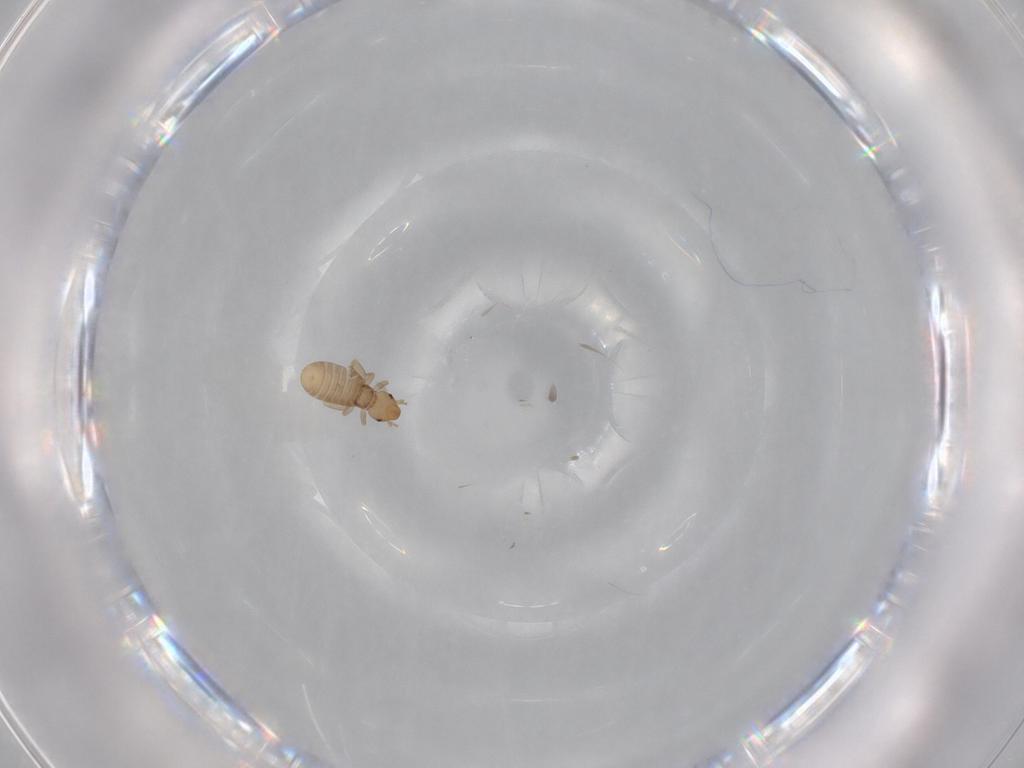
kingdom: Animalia
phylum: Arthropoda
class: Insecta
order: Psocodea
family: Liposcelididae
